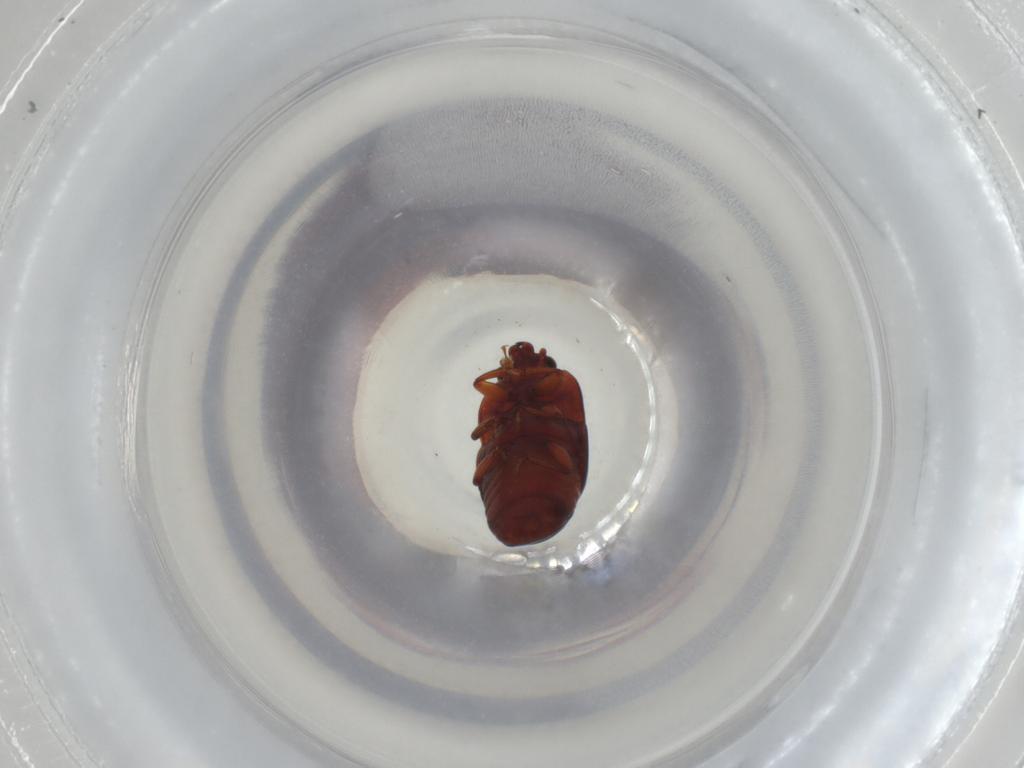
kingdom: Animalia
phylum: Arthropoda
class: Insecta
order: Coleoptera
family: Nitidulidae
